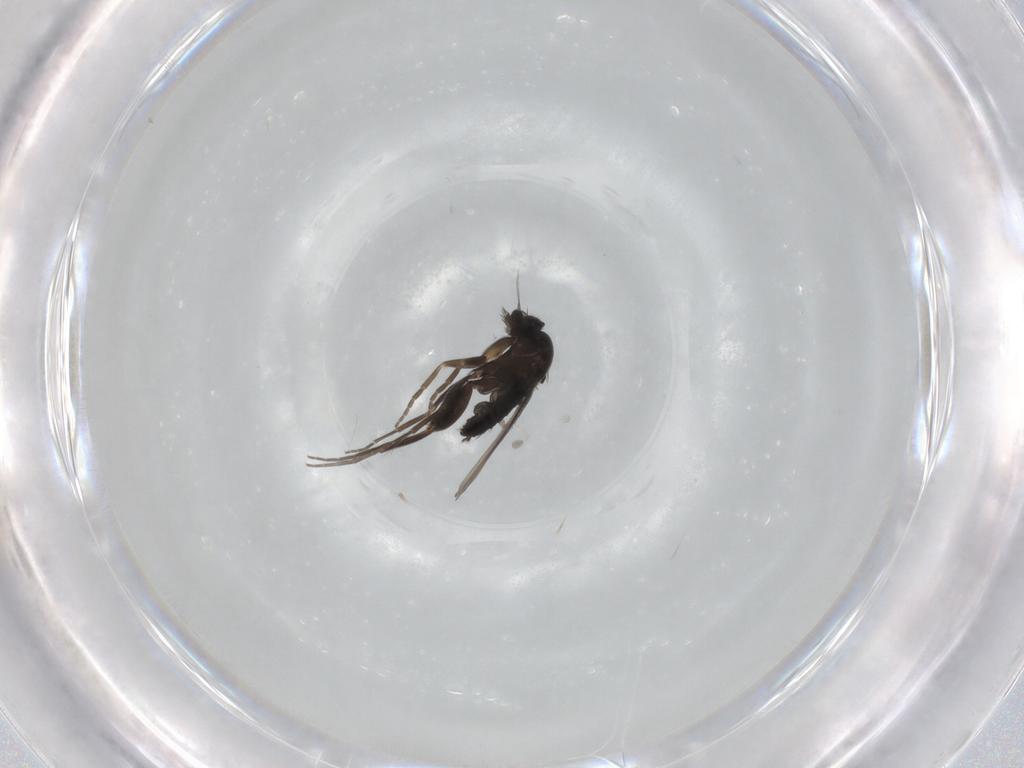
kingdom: Animalia
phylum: Arthropoda
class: Insecta
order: Diptera
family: Phoridae
